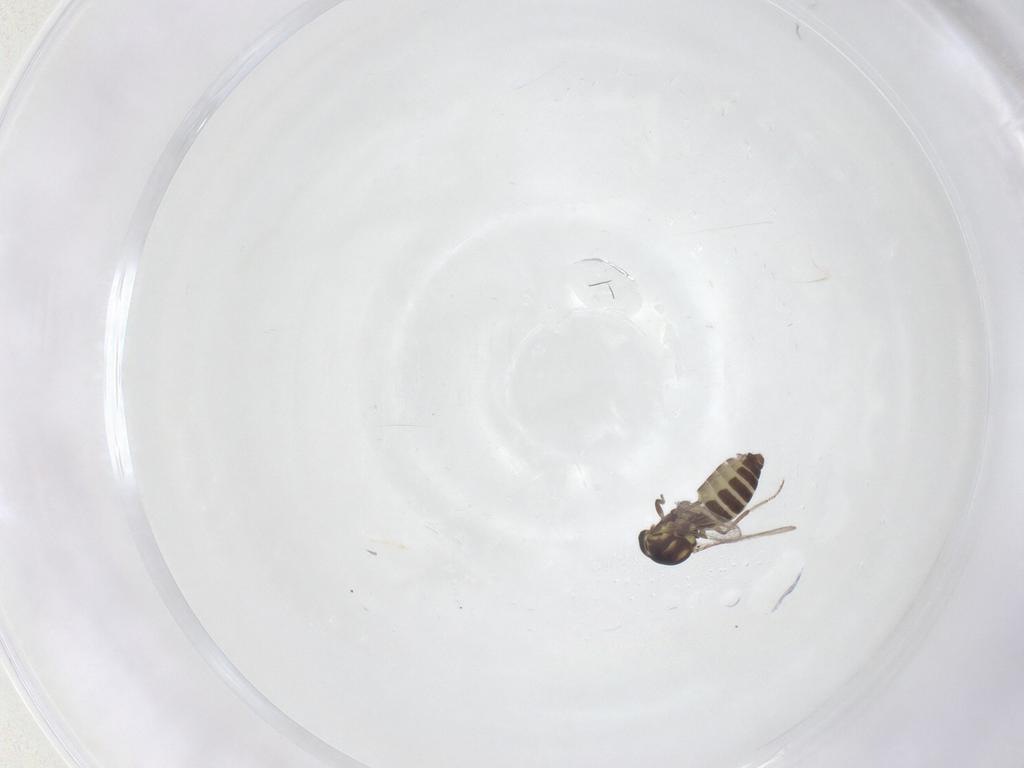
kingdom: Animalia
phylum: Arthropoda
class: Insecta
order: Diptera
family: Ceratopogonidae
